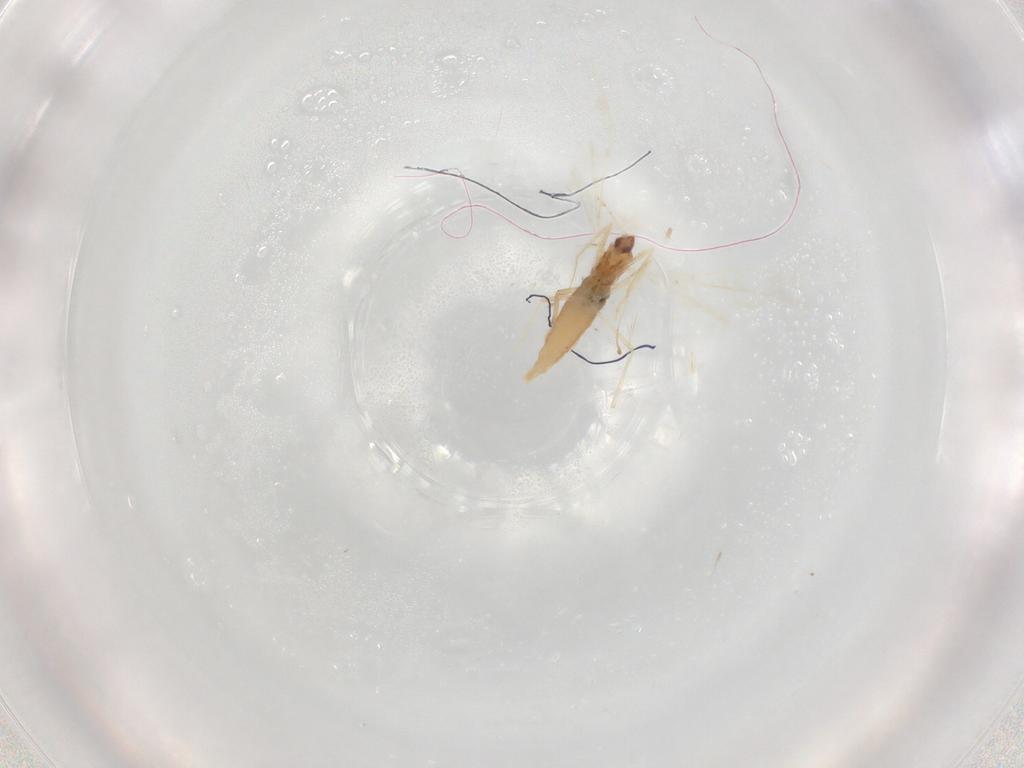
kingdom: Animalia
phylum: Arthropoda
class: Insecta
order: Diptera
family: Cecidomyiidae
